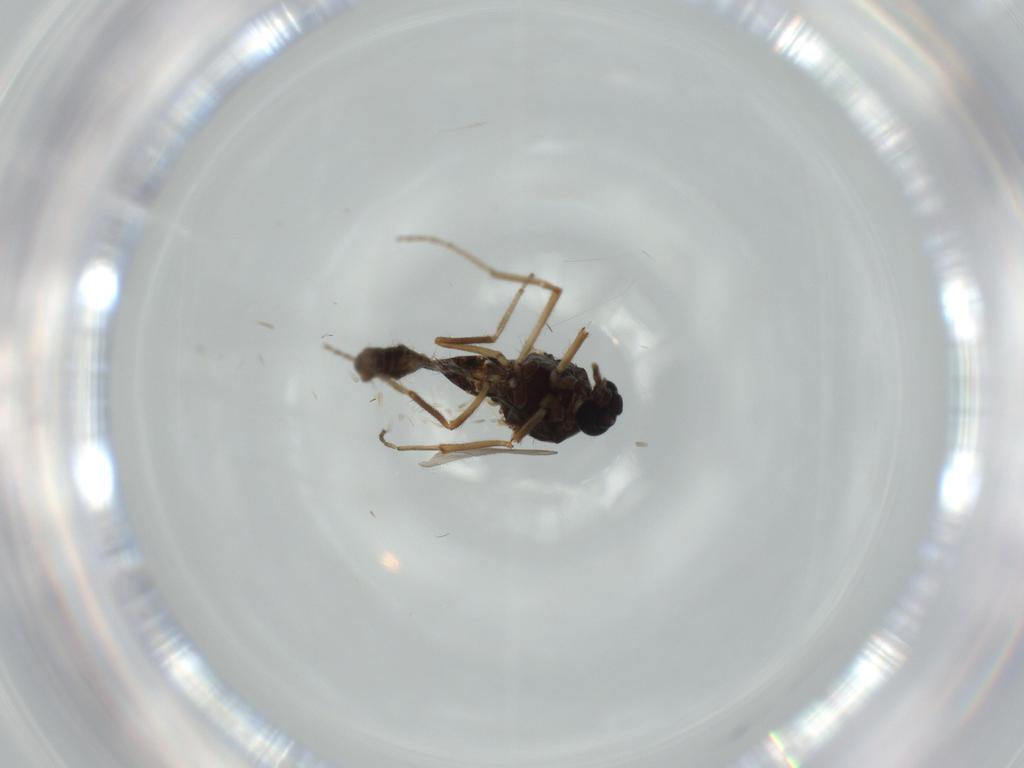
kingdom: Animalia
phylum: Arthropoda
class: Insecta
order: Diptera
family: Ceratopogonidae
